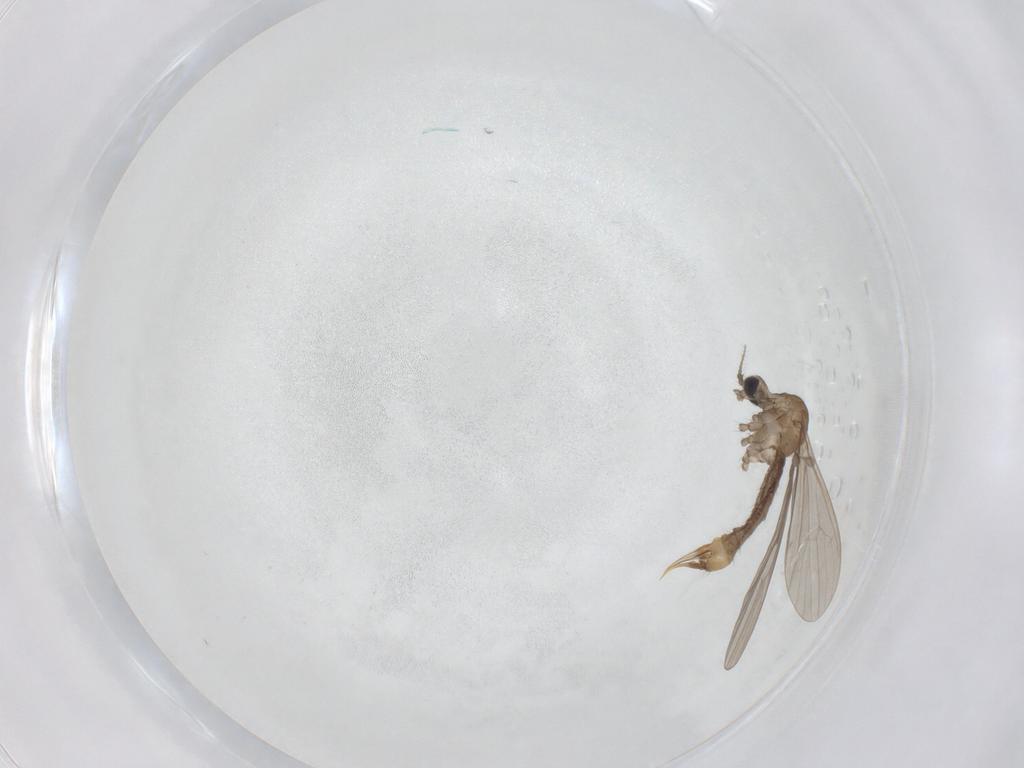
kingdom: Animalia
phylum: Arthropoda
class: Insecta
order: Diptera
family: Limoniidae
